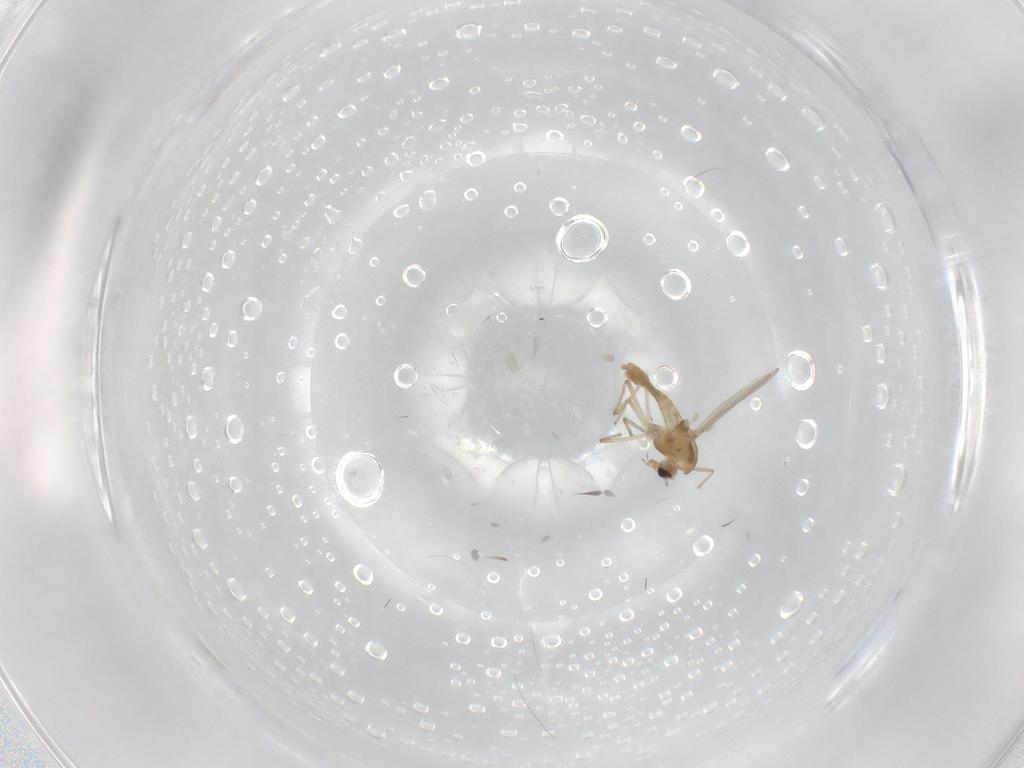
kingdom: Animalia
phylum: Arthropoda
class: Insecta
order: Diptera
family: Chironomidae
